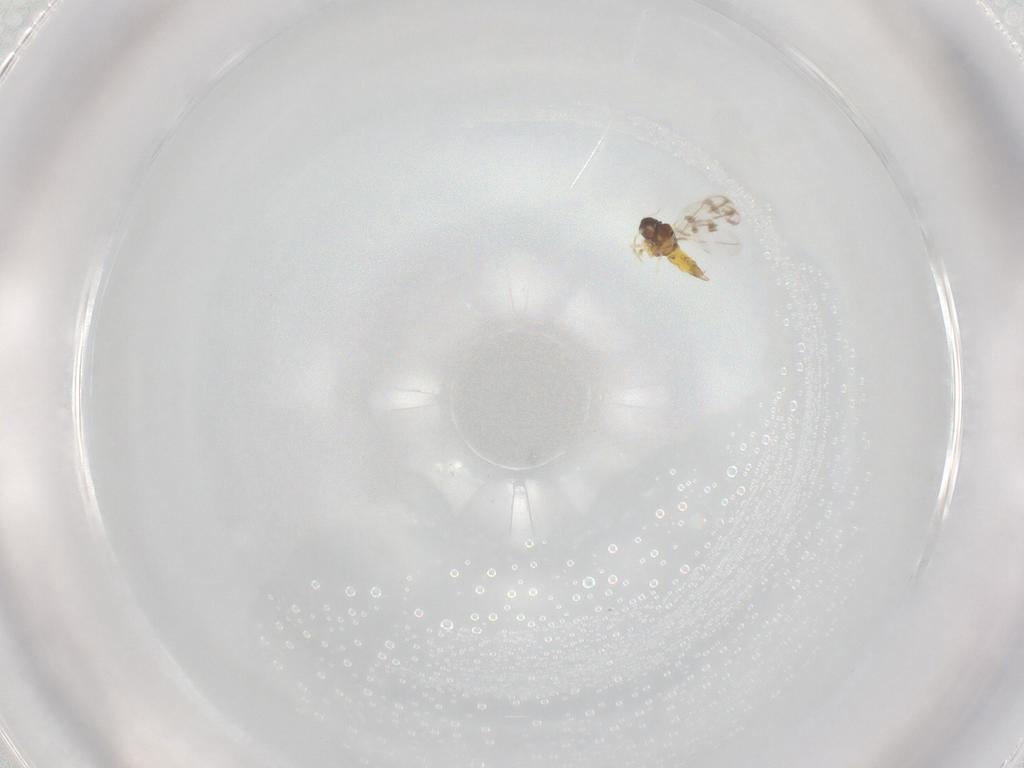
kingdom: Animalia
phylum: Arthropoda
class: Insecta
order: Hemiptera
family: Aleyrodidae
